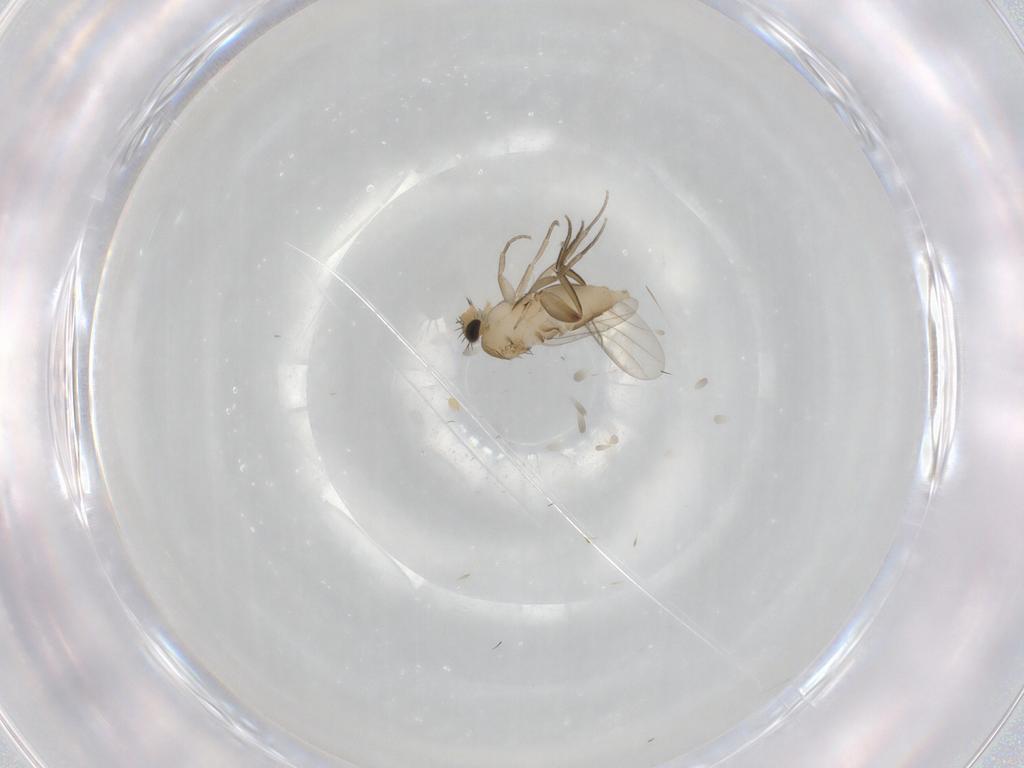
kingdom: Animalia
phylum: Arthropoda
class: Insecta
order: Diptera
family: Phoridae
